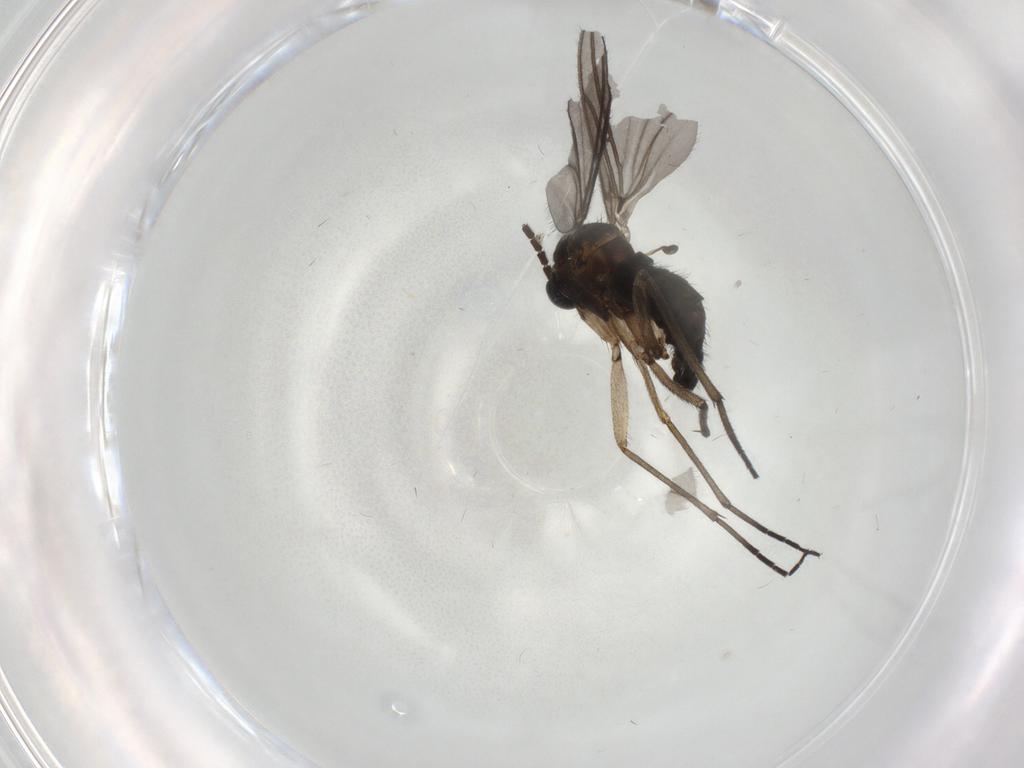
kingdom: Animalia
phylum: Arthropoda
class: Insecta
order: Diptera
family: Sciaridae
